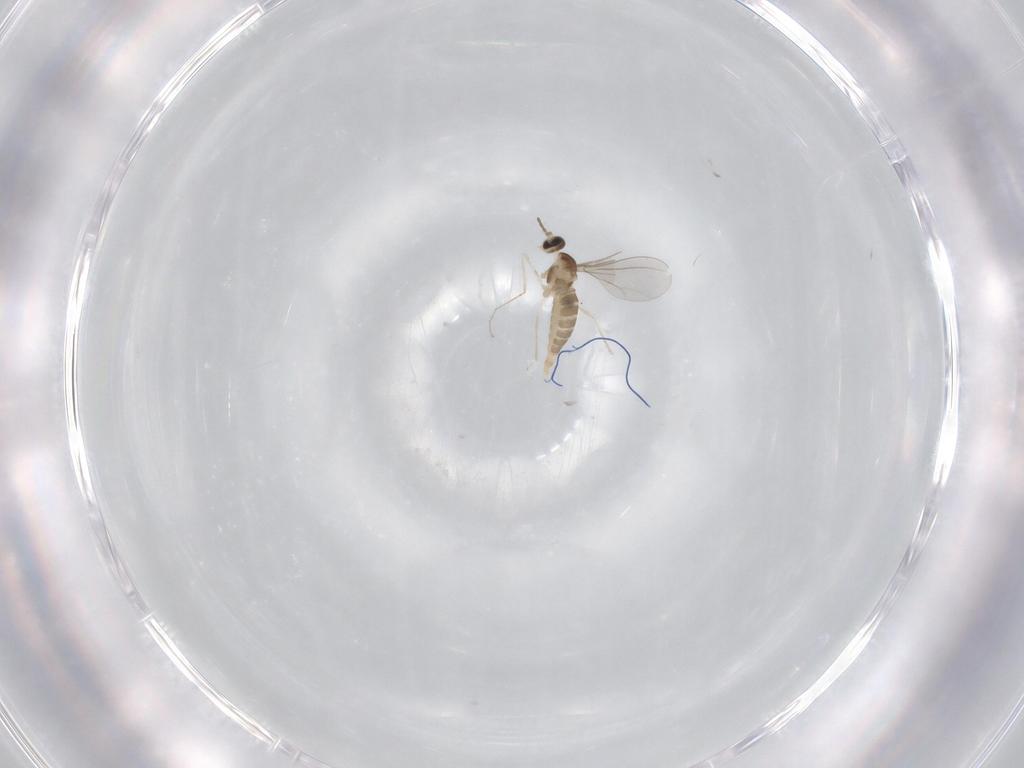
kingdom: Animalia
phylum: Arthropoda
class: Insecta
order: Diptera
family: Cecidomyiidae
